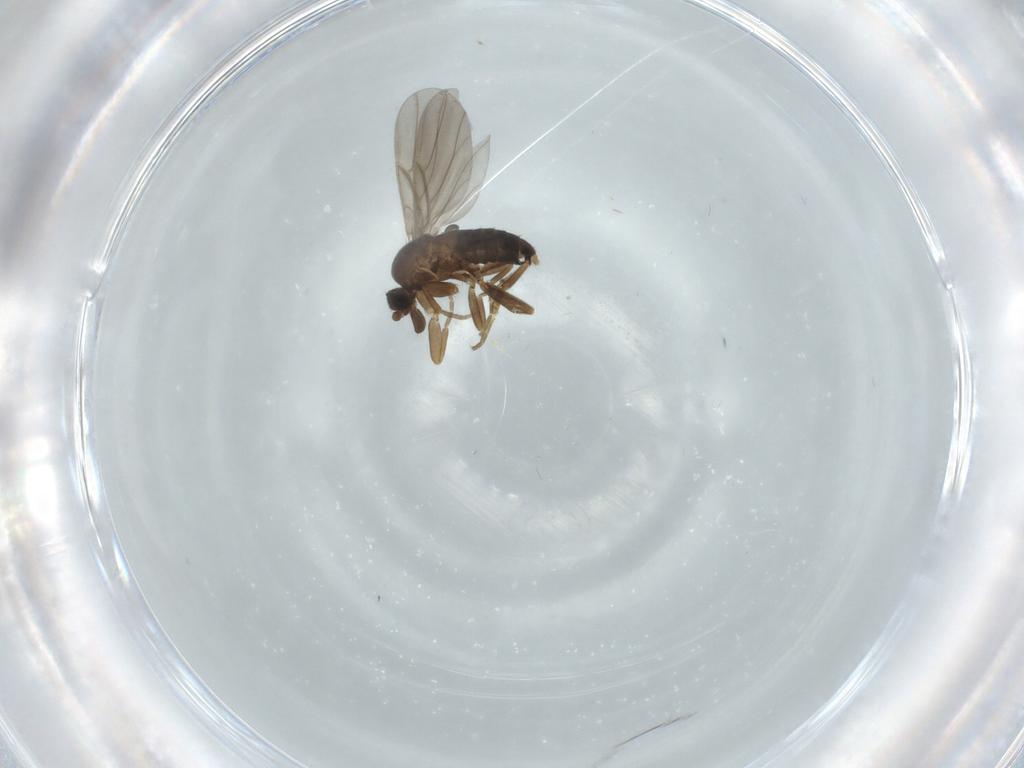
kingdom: Animalia
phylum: Arthropoda
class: Insecta
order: Diptera
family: Phoridae
